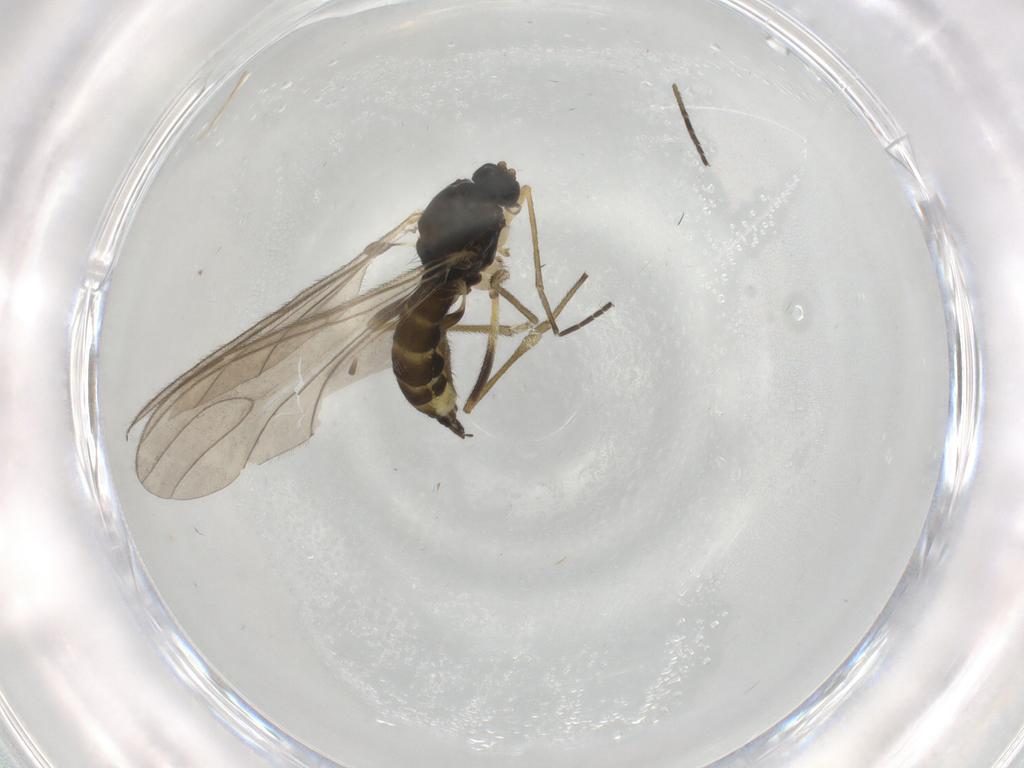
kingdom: Animalia
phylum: Arthropoda
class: Insecta
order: Diptera
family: Sciaridae
